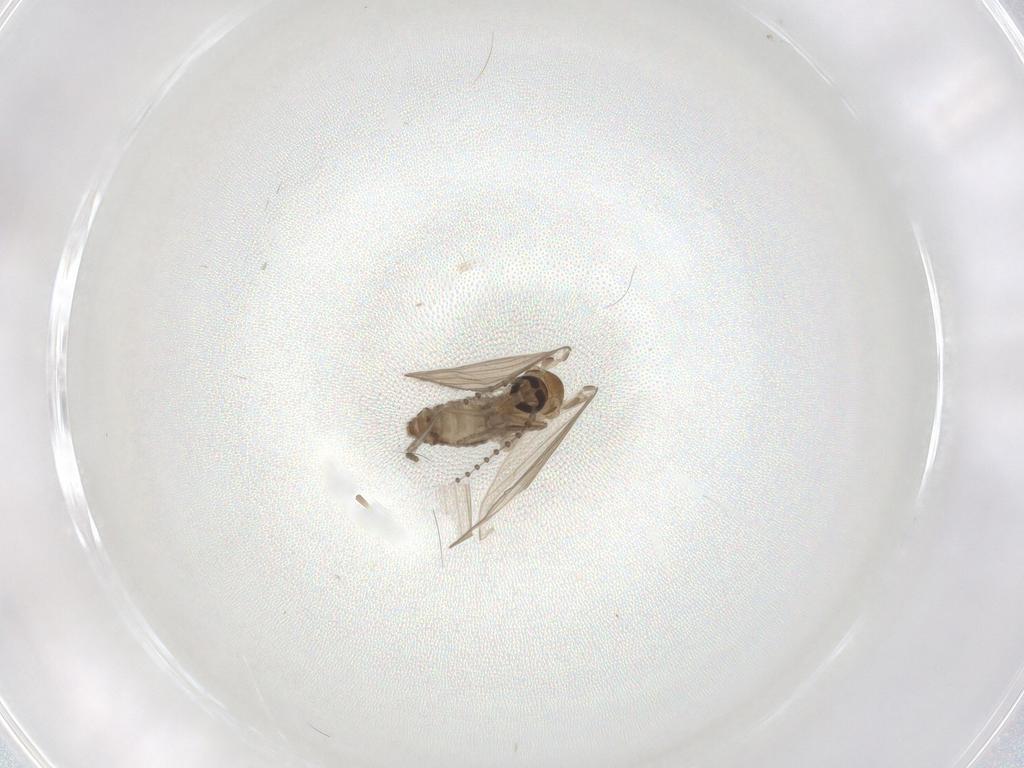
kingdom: Animalia
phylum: Arthropoda
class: Insecta
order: Diptera
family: Psychodidae
